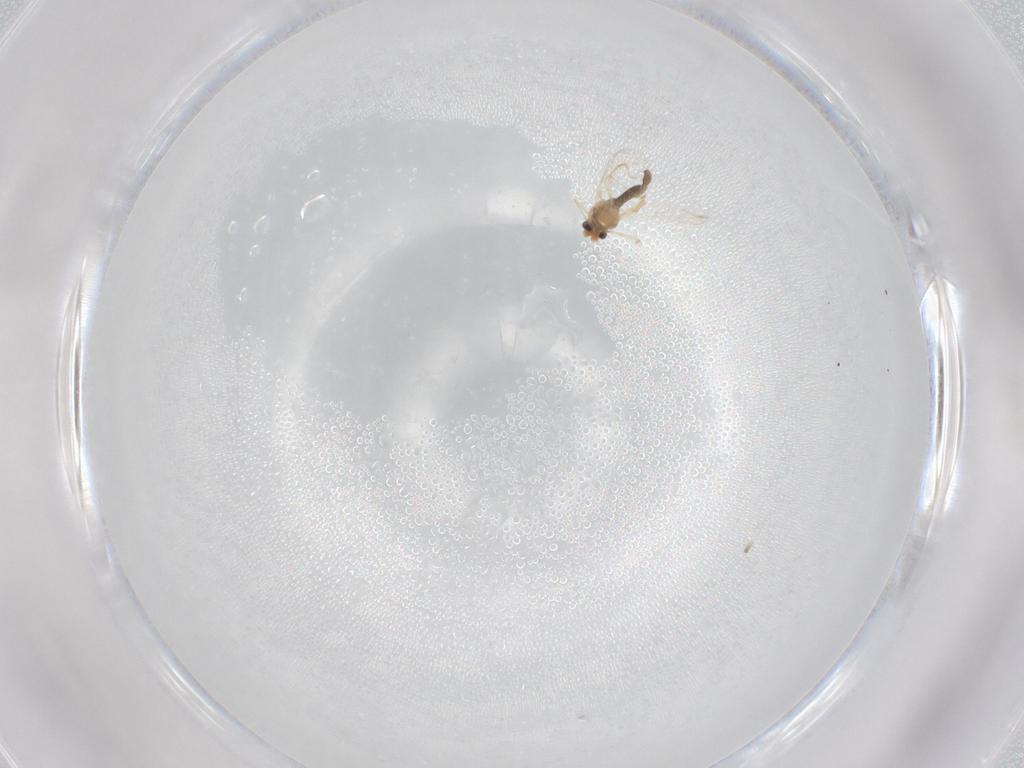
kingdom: Animalia
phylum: Arthropoda
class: Insecta
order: Diptera
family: Chironomidae
